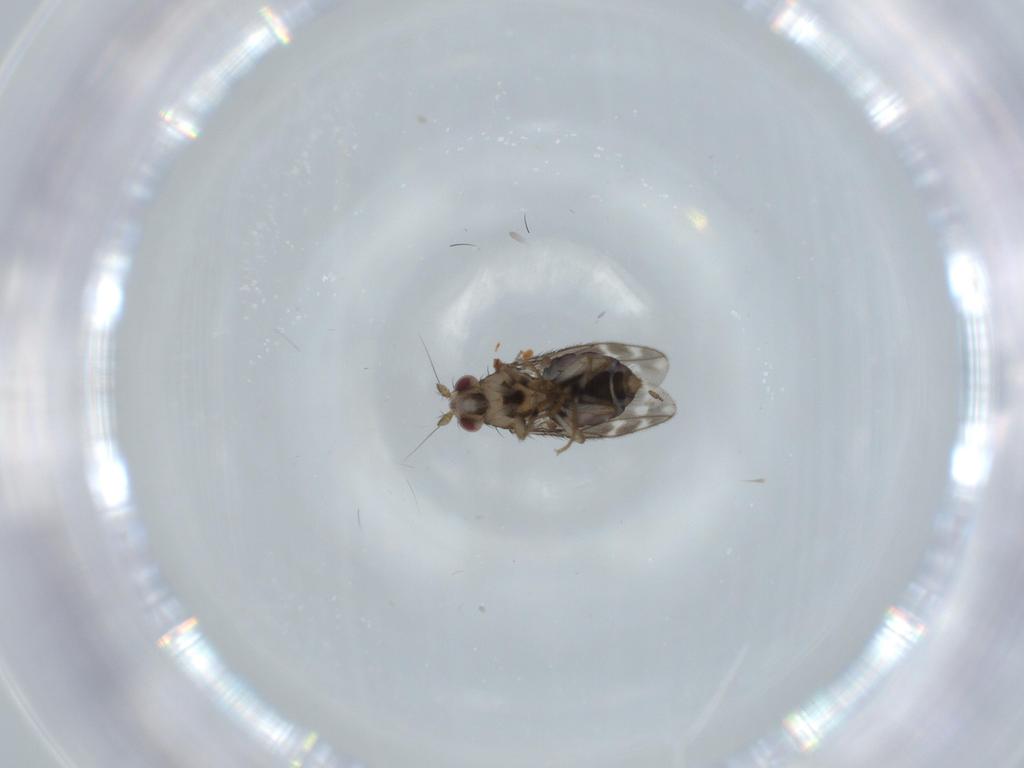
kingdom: Animalia
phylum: Arthropoda
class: Insecta
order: Diptera
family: Sphaeroceridae
